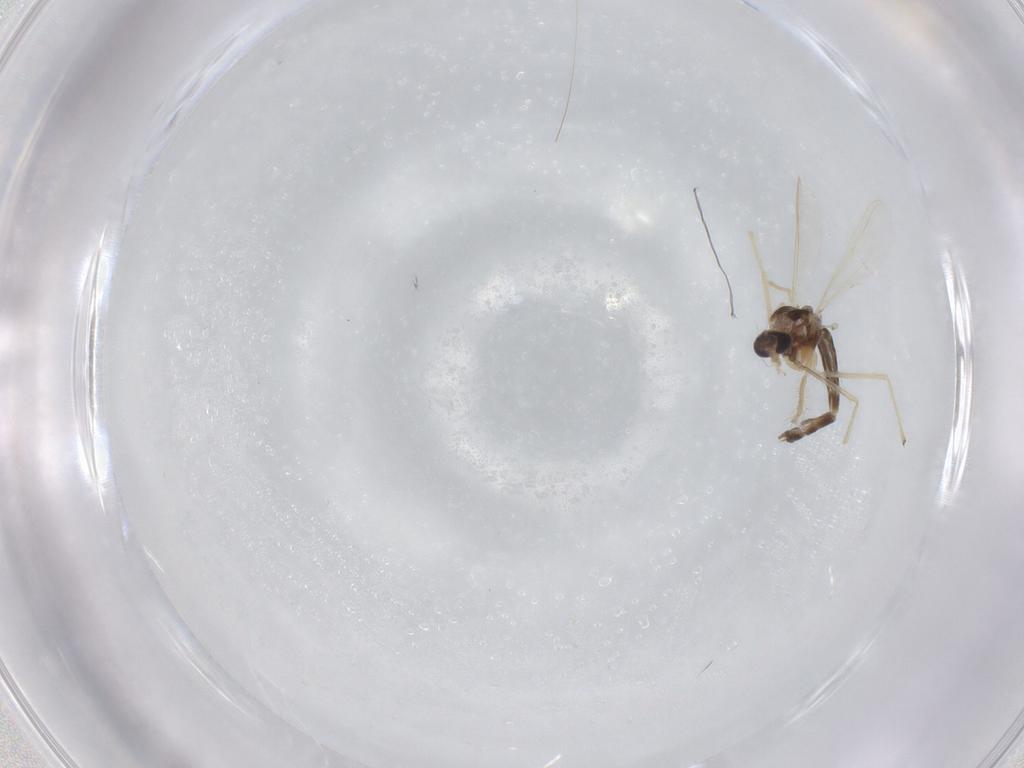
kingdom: Animalia
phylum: Arthropoda
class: Insecta
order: Diptera
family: Chironomidae
